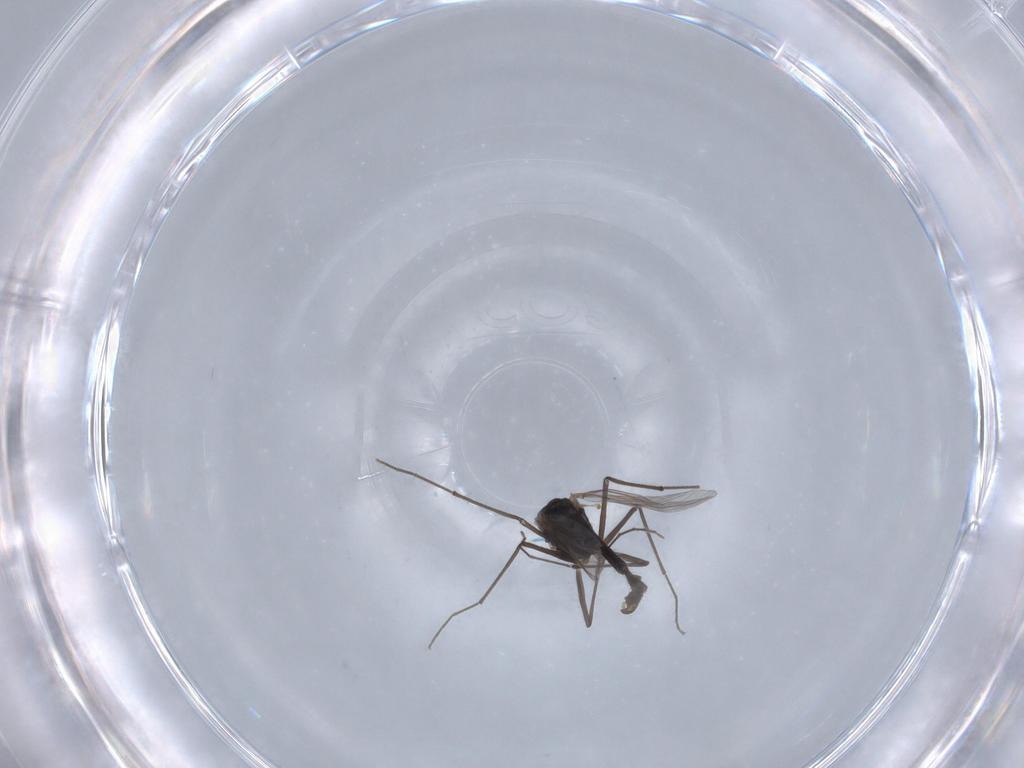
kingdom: Animalia
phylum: Arthropoda
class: Insecta
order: Diptera
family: Chironomidae
